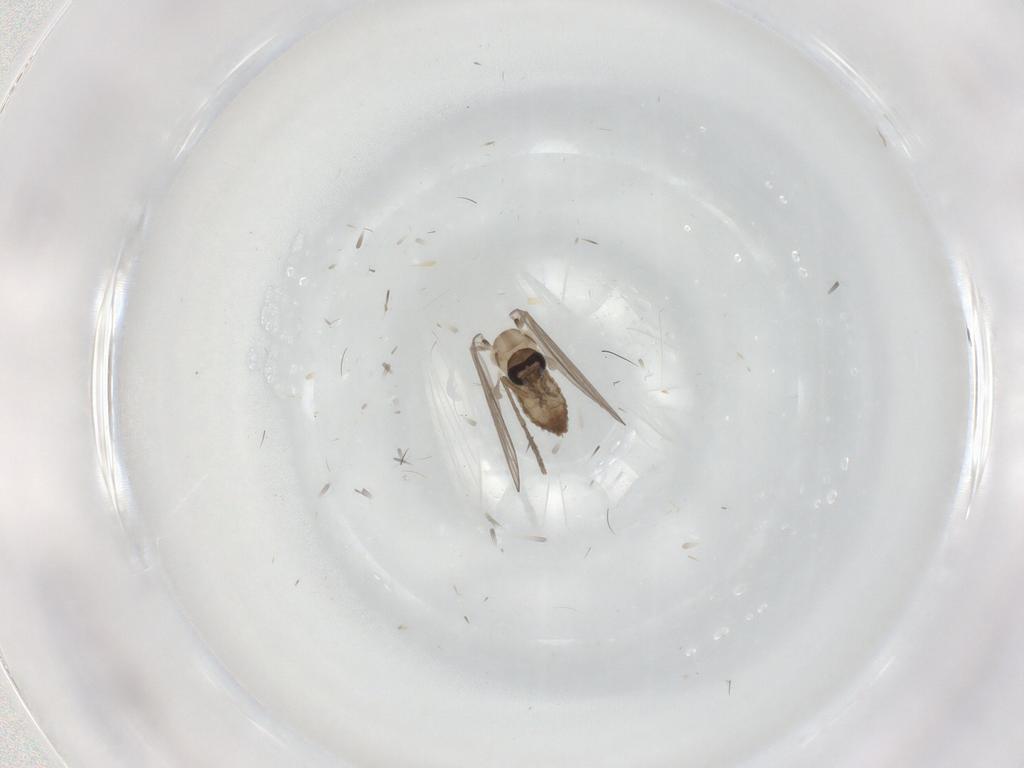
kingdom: Animalia
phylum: Arthropoda
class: Insecta
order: Diptera
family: Psychodidae
